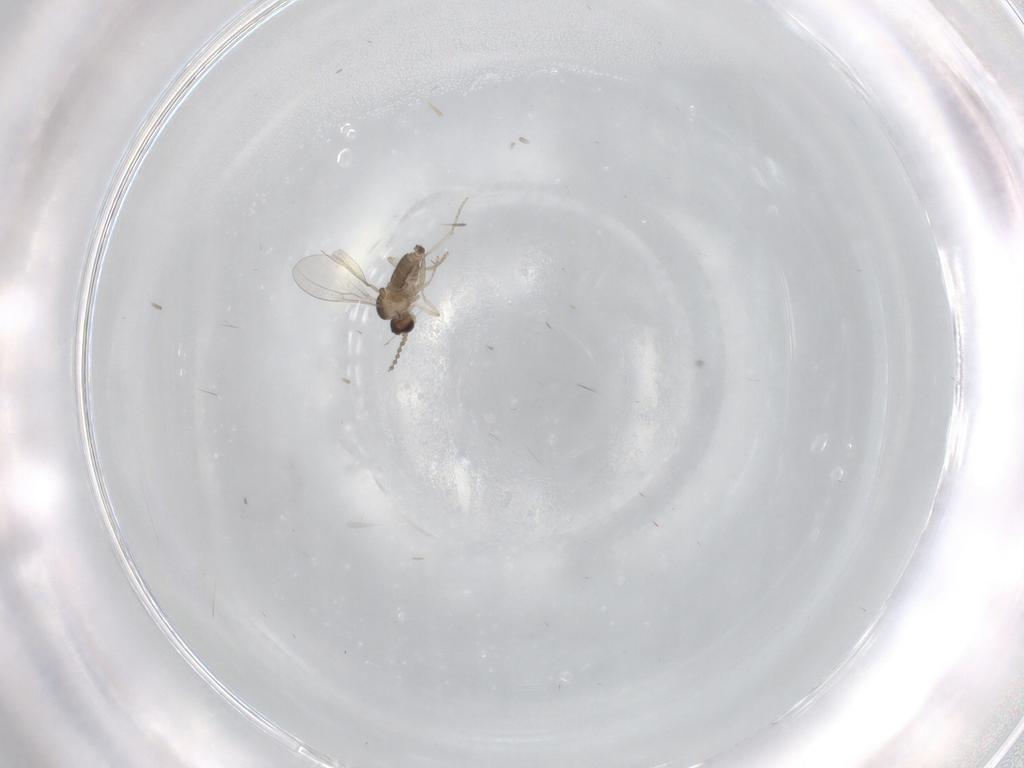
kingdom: Animalia
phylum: Arthropoda
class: Insecta
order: Diptera
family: Cecidomyiidae
